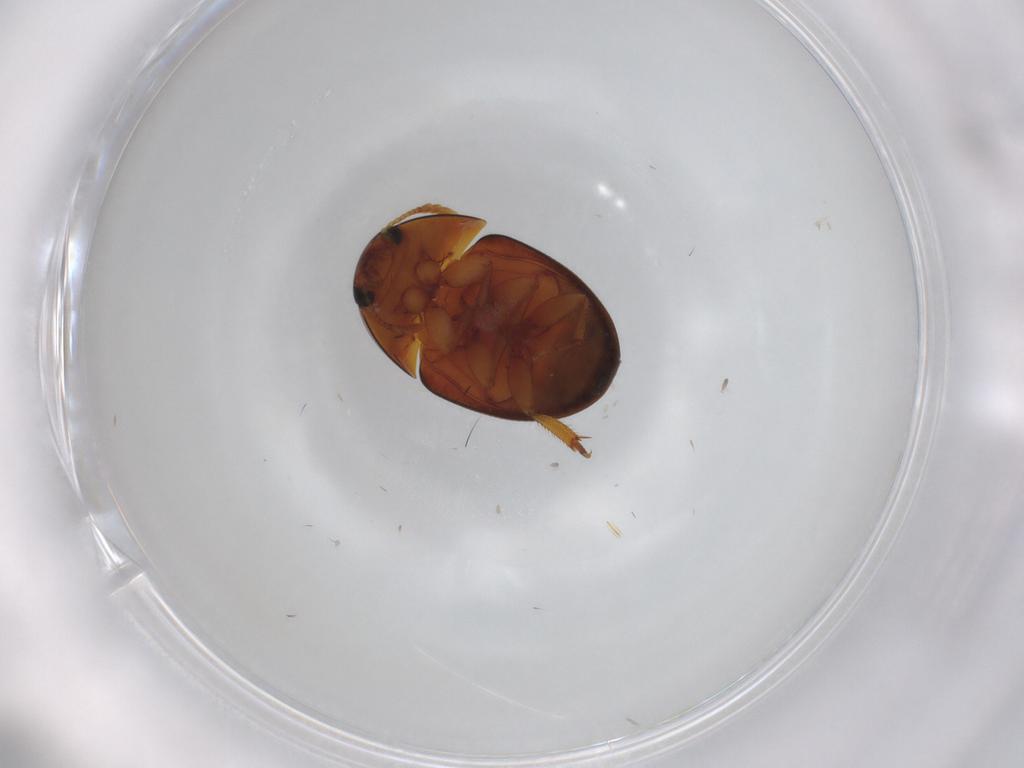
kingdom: Animalia
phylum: Arthropoda
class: Insecta
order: Coleoptera
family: Phalacridae
